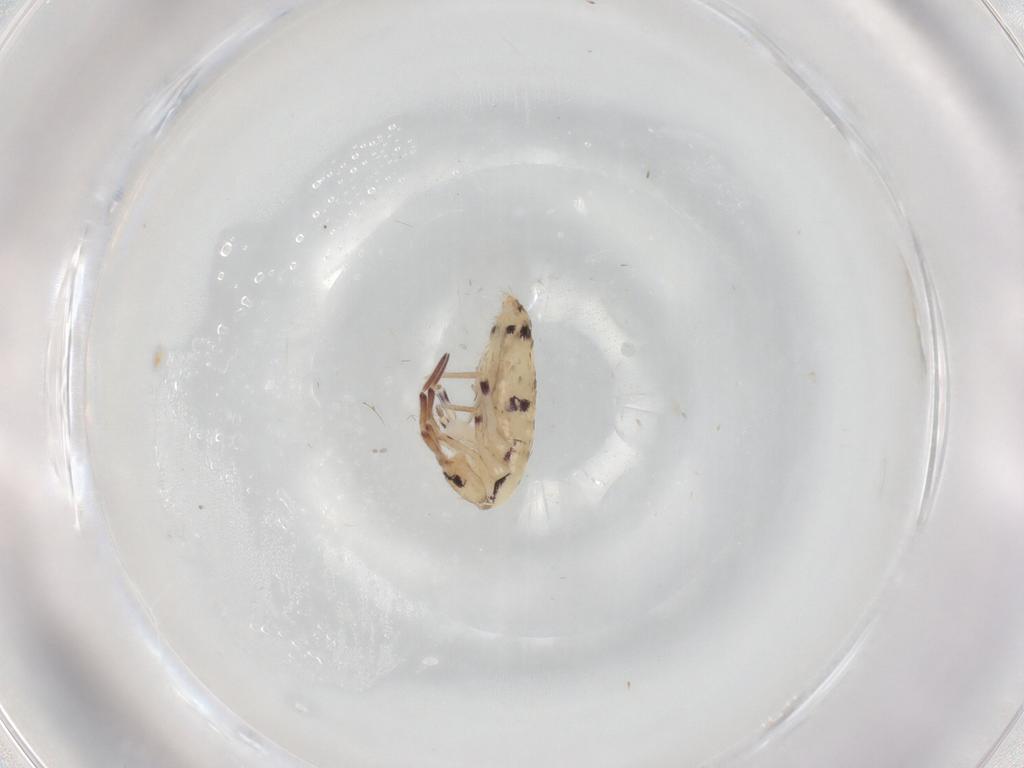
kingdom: Animalia
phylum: Arthropoda
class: Collembola
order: Poduromorpha
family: Hypogastruridae
